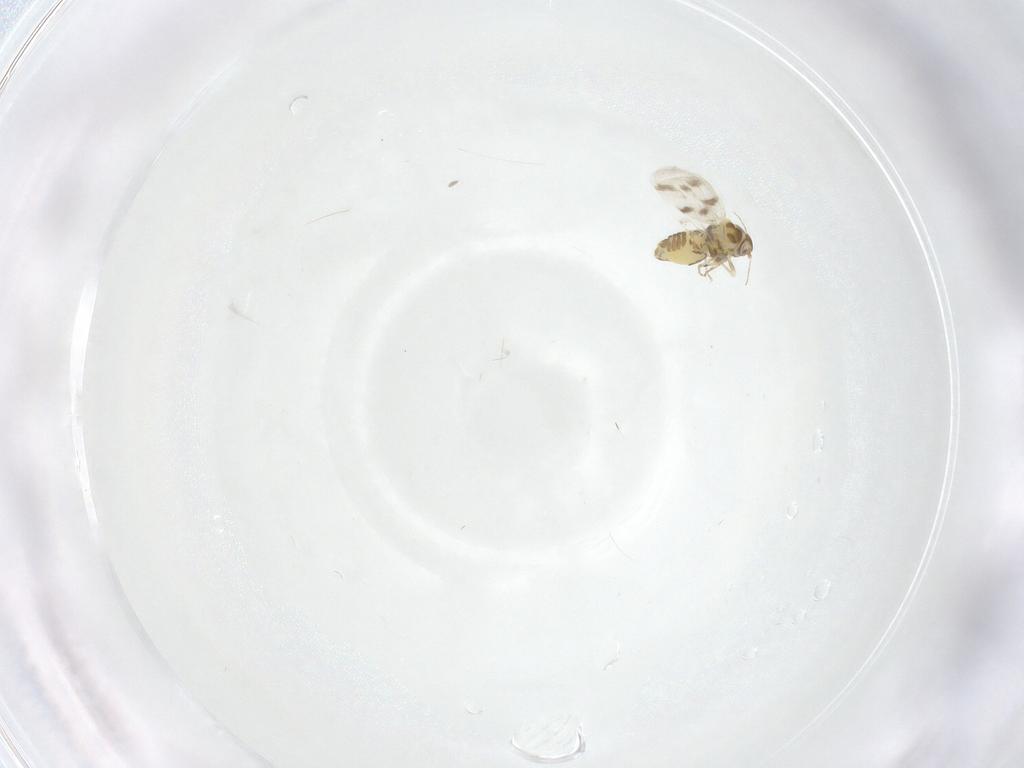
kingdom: Animalia
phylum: Arthropoda
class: Insecta
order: Hemiptera
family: Aleyrodidae
